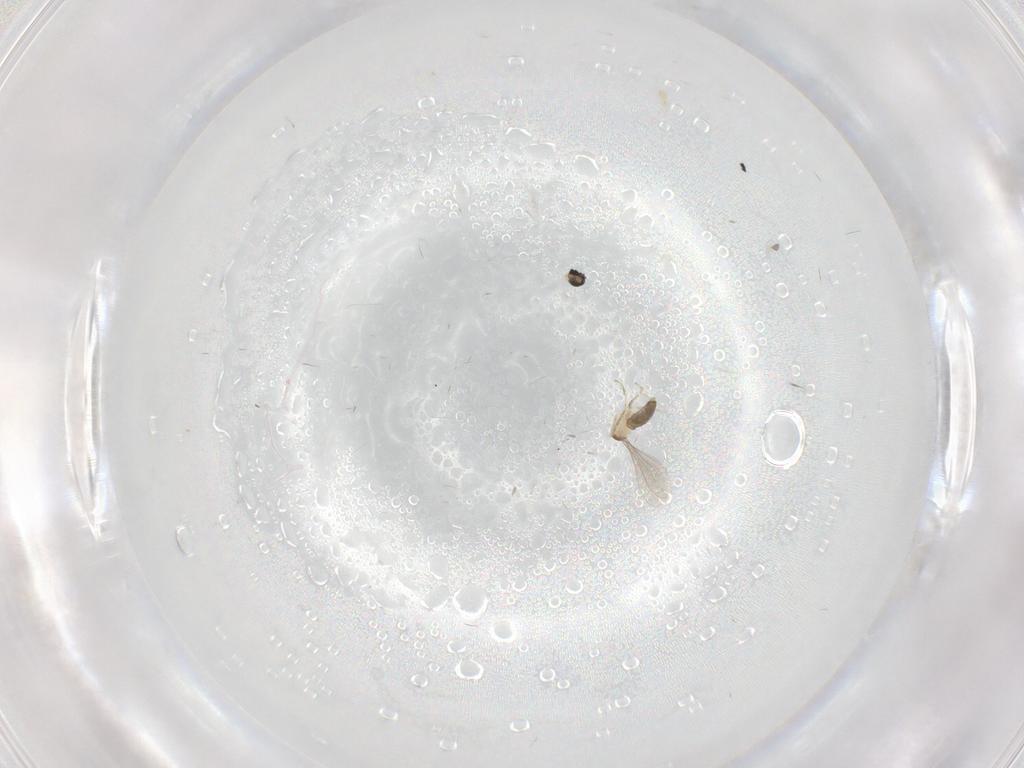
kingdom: Animalia
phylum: Arthropoda
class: Insecta
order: Diptera
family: Cecidomyiidae
